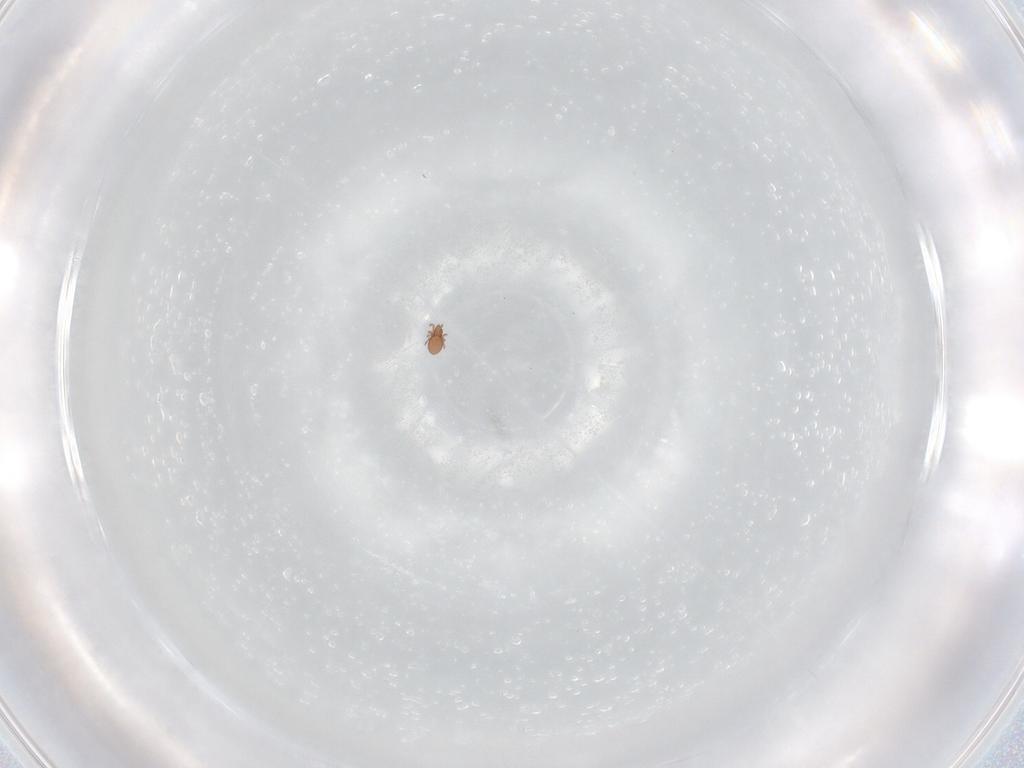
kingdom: Animalia
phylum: Arthropoda
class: Arachnida
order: Sarcoptiformes
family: Oppiidae
